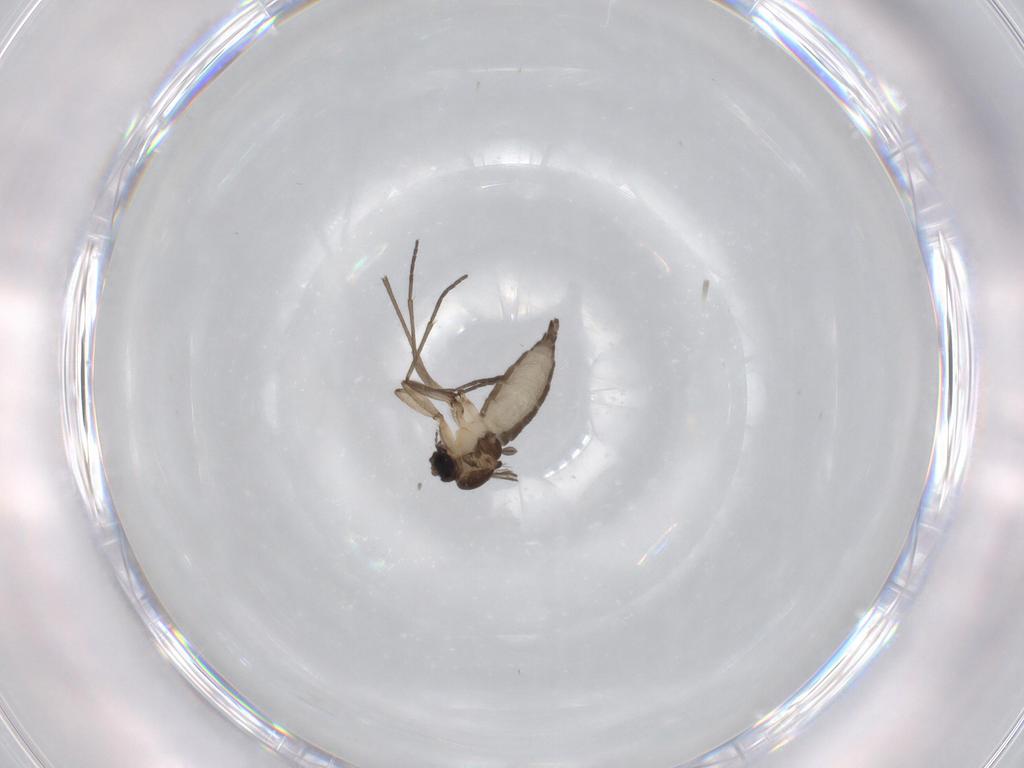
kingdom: Animalia
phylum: Arthropoda
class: Insecta
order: Diptera
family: Sciaridae
